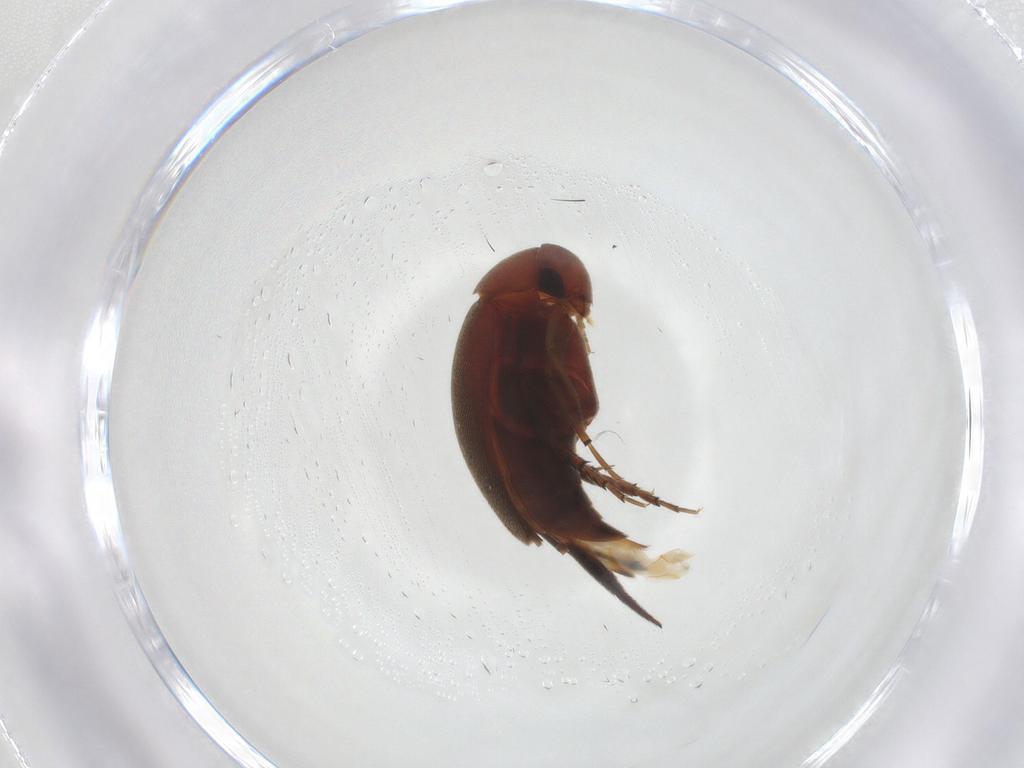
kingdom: Animalia
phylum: Arthropoda
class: Insecta
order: Coleoptera
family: Mordellidae
